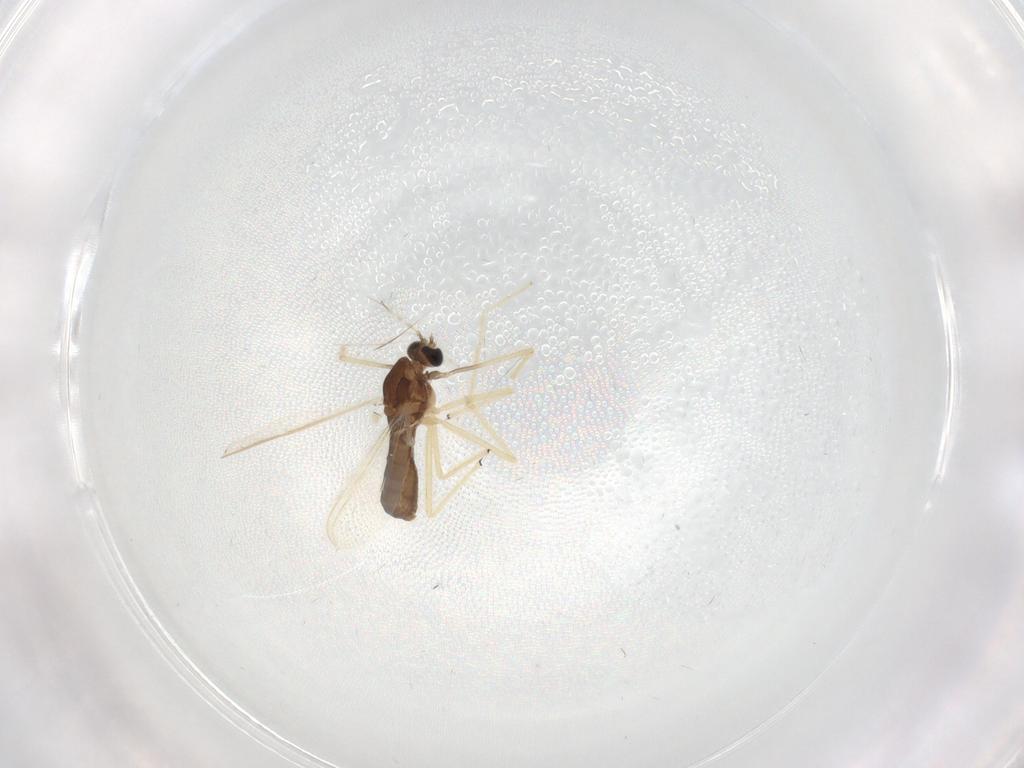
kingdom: Animalia
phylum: Arthropoda
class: Insecta
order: Diptera
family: Chironomidae
